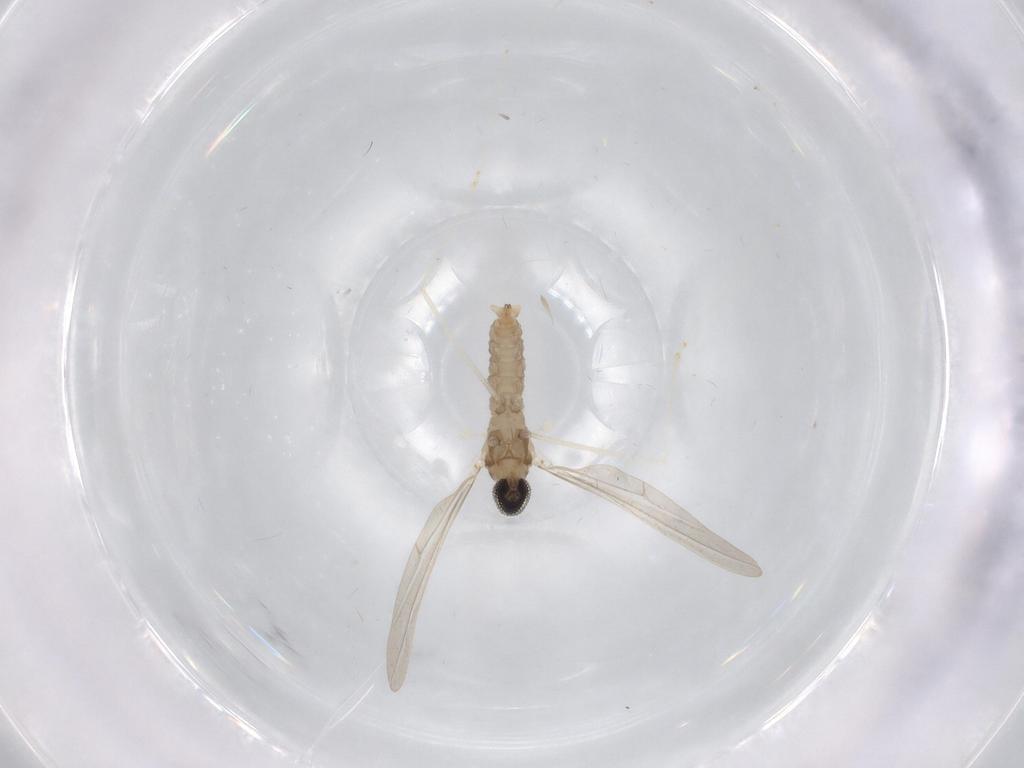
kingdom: Animalia
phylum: Arthropoda
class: Insecta
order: Diptera
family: Cecidomyiidae
